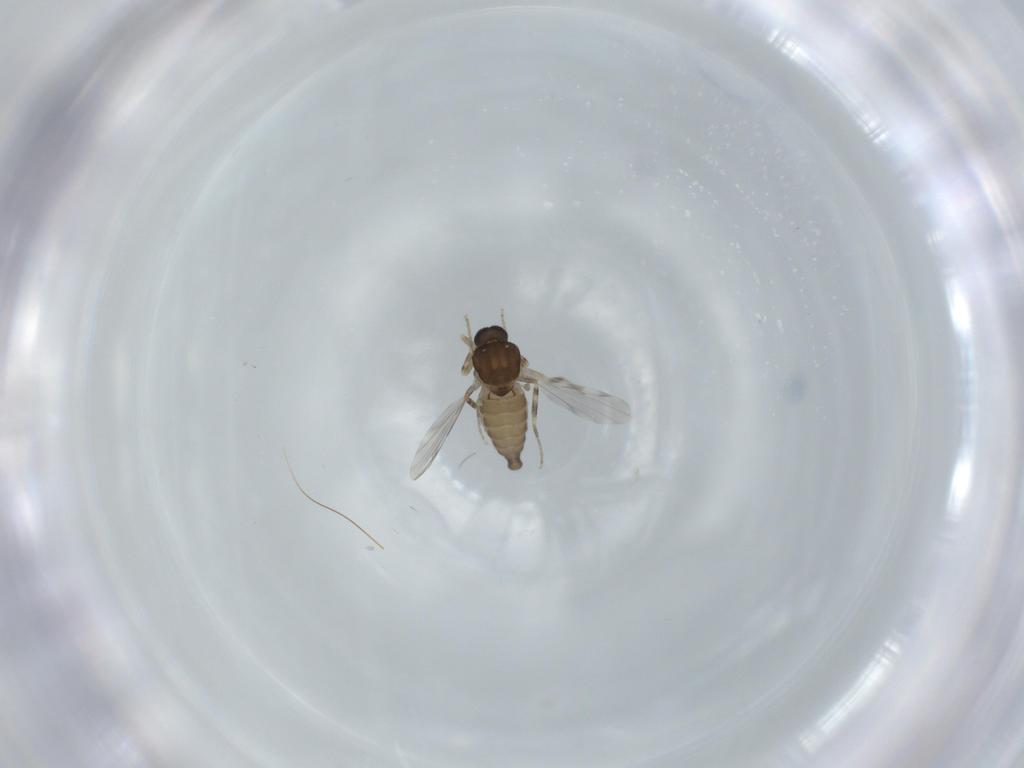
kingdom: Animalia
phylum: Arthropoda
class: Insecta
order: Diptera
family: Ceratopogonidae
